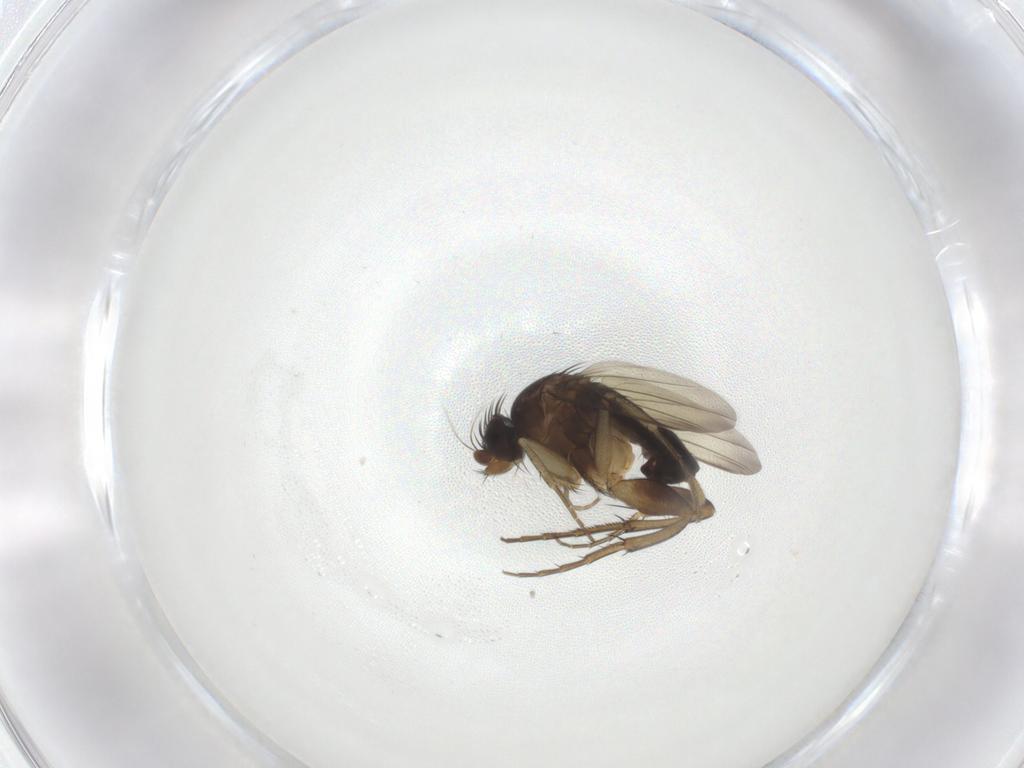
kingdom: Animalia
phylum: Arthropoda
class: Insecta
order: Diptera
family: Phoridae
